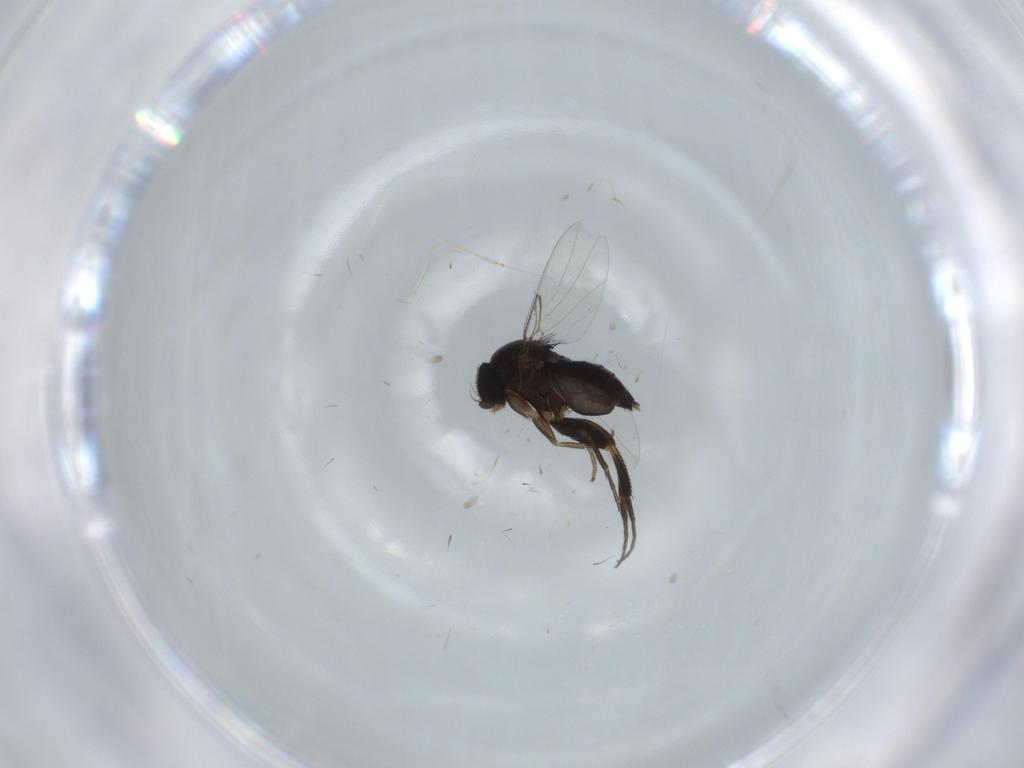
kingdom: Animalia
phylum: Arthropoda
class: Insecta
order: Diptera
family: Phoridae
